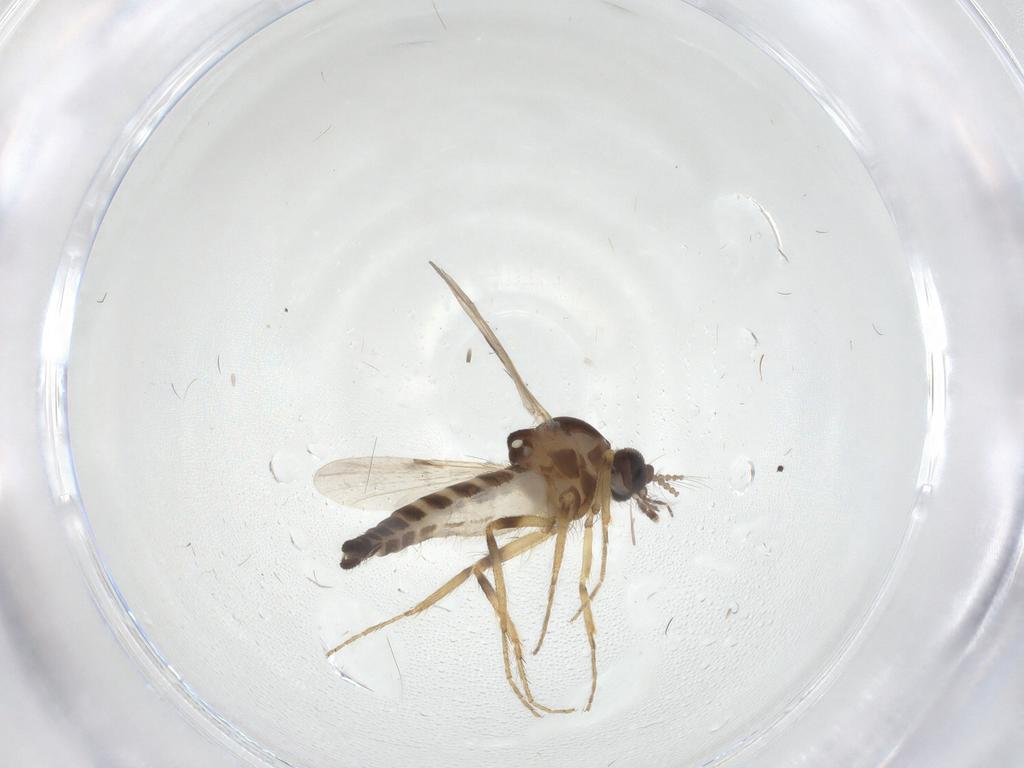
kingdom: Animalia
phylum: Arthropoda
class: Insecta
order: Diptera
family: Ceratopogonidae
